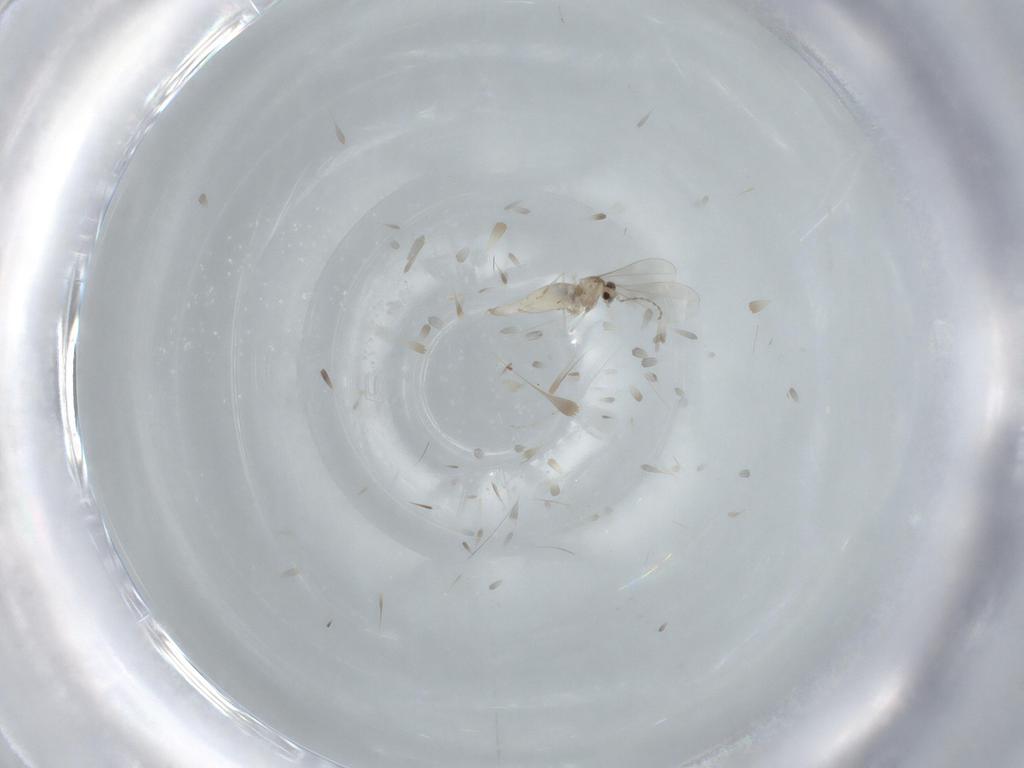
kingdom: Animalia
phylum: Arthropoda
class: Insecta
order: Diptera
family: Cecidomyiidae
